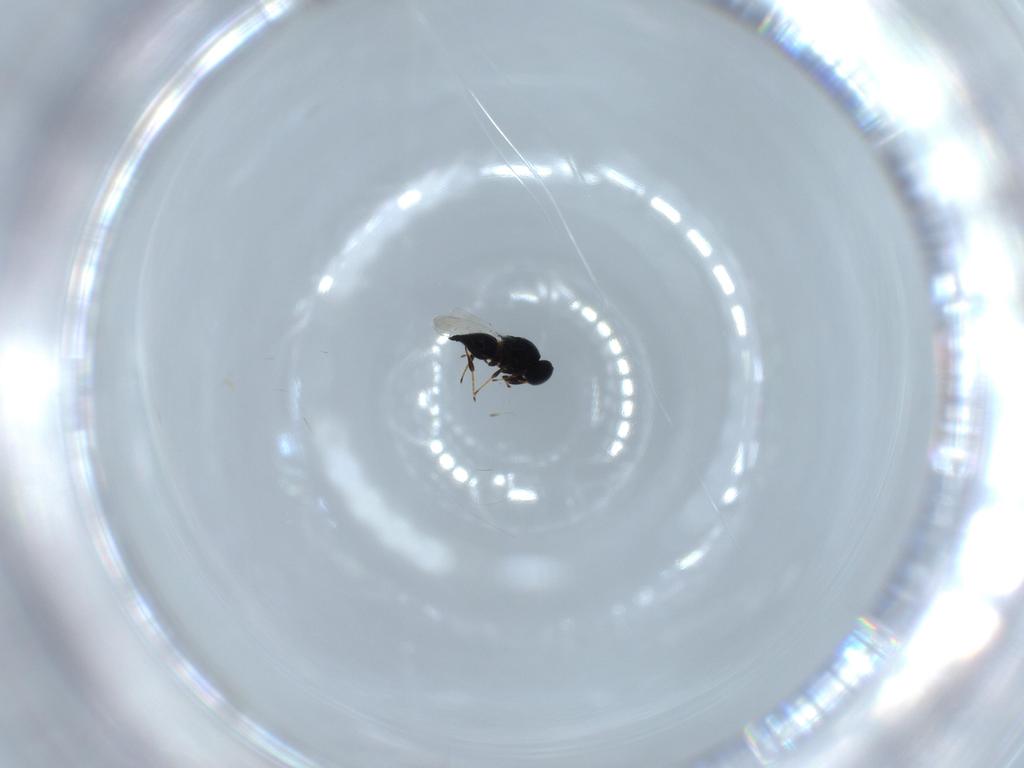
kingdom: Animalia
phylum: Arthropoda
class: Insecta
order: Hymenoptera
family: Platygastridae
